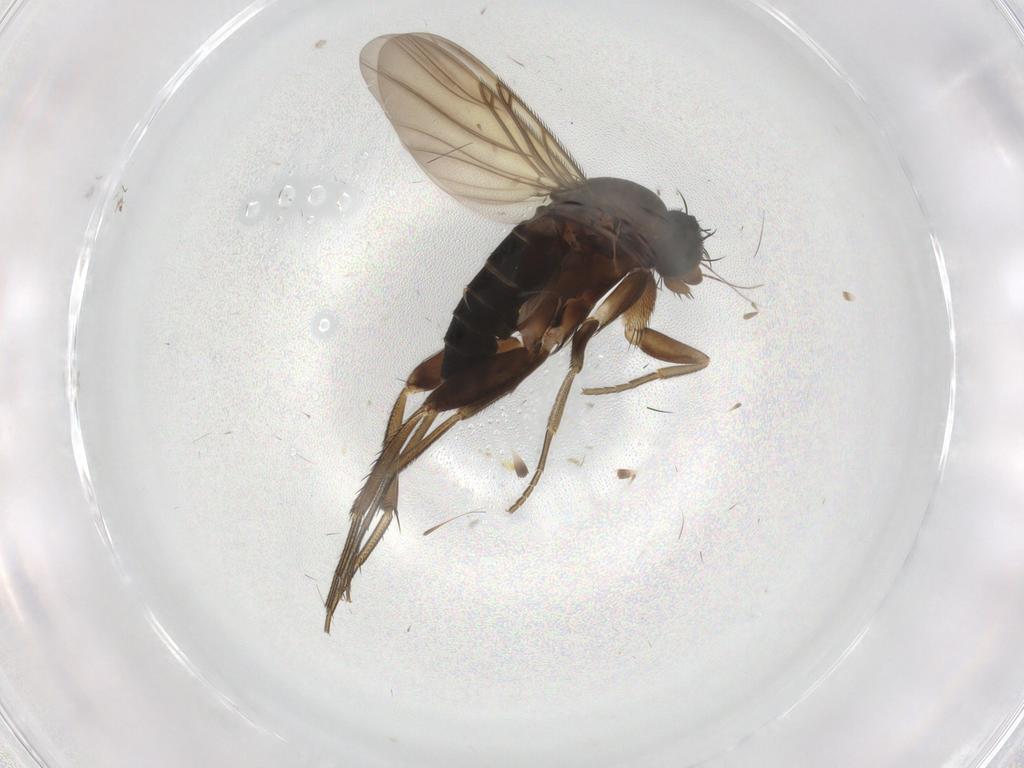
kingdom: Animalia
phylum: Arthropoda
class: Insecta
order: Diptera
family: Phoridae
